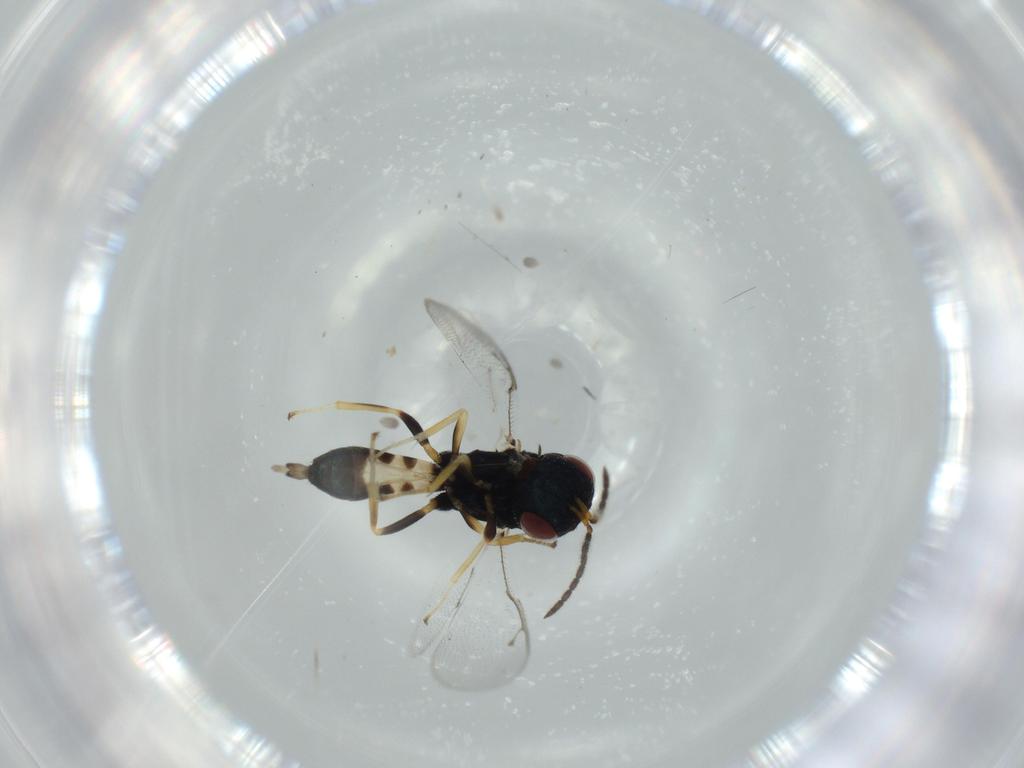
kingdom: Animalia
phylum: Arthropoda
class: Insecta
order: Hymenoptera
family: Pteromalidae
